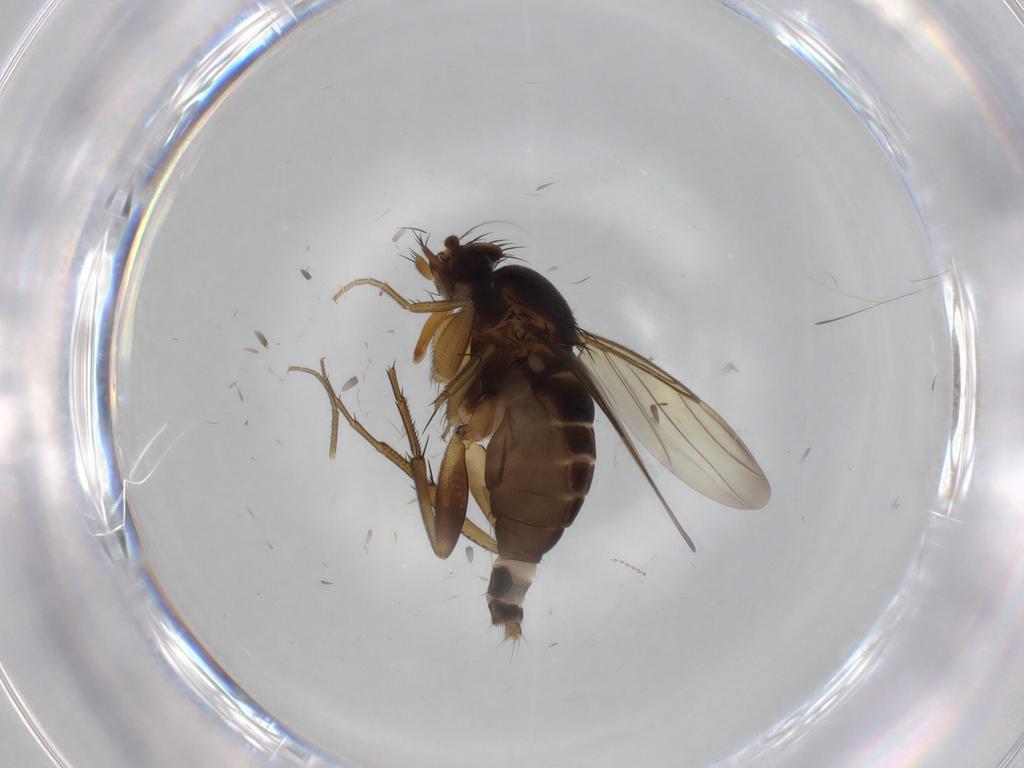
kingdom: Animalia
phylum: Arthropoda
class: Insecta
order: Diptera
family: Phoridae
